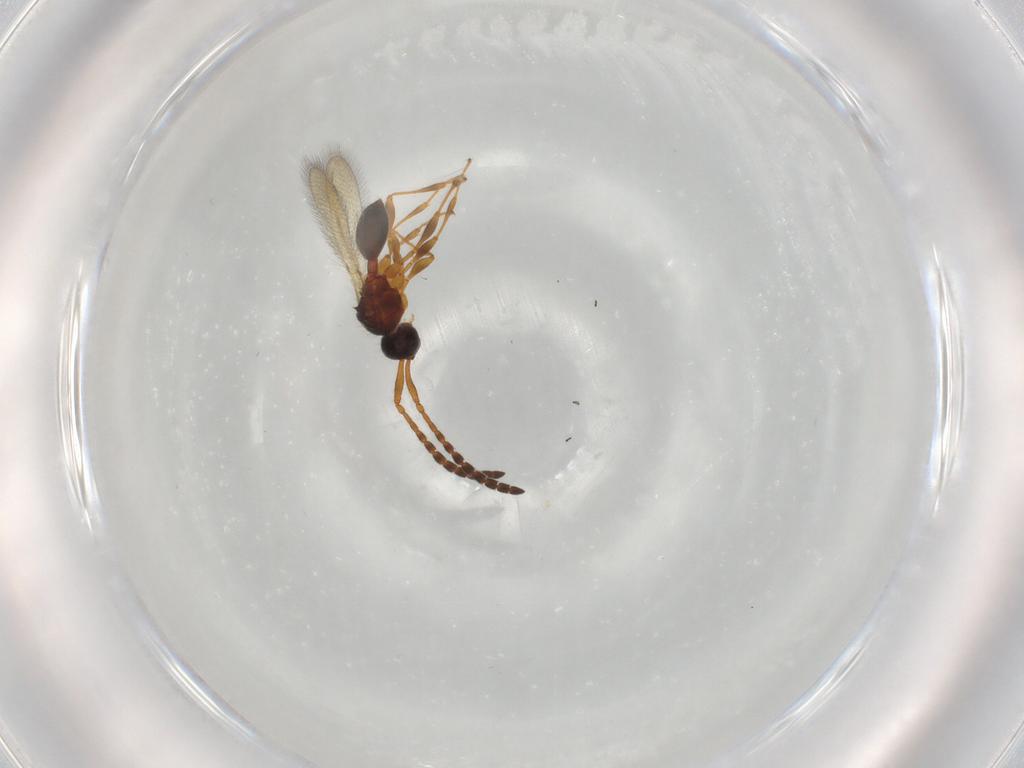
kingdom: Animalia
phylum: Arthropoda
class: Insecta
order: Hymenoptera
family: Diapriidae
